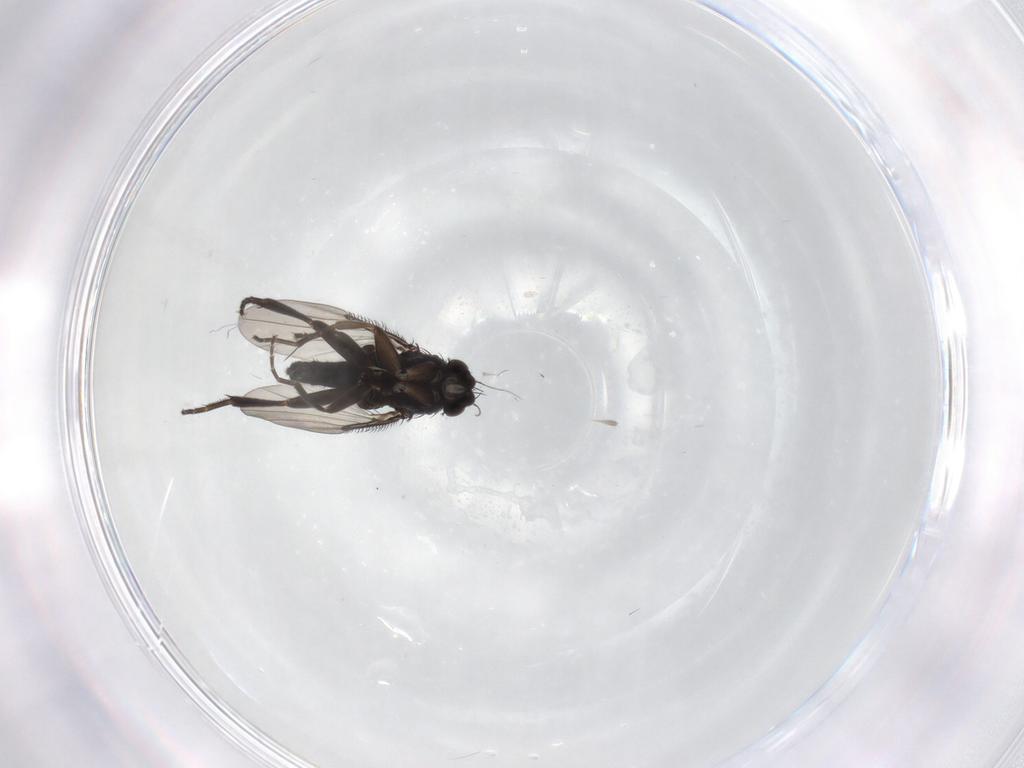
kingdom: Animalia
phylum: Arthropoda
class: Insecta
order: Diptera
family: Phoridae
